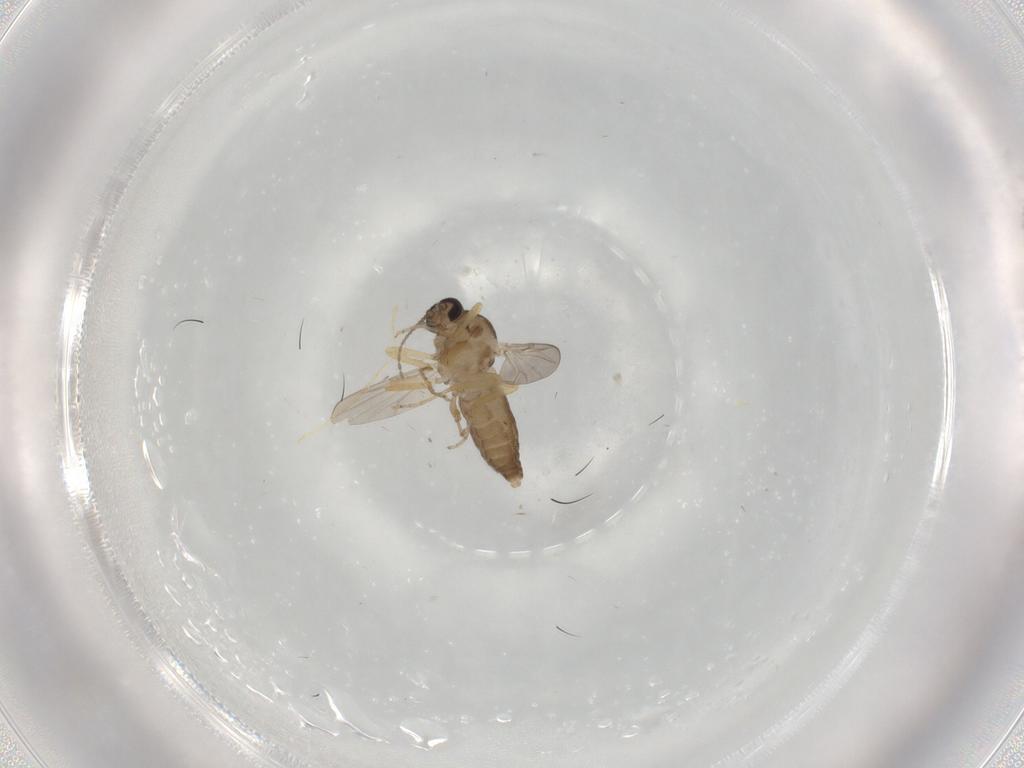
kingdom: Animalia
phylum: Arthropoda
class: Insecta
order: Diptera
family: Ceratopogonidae
